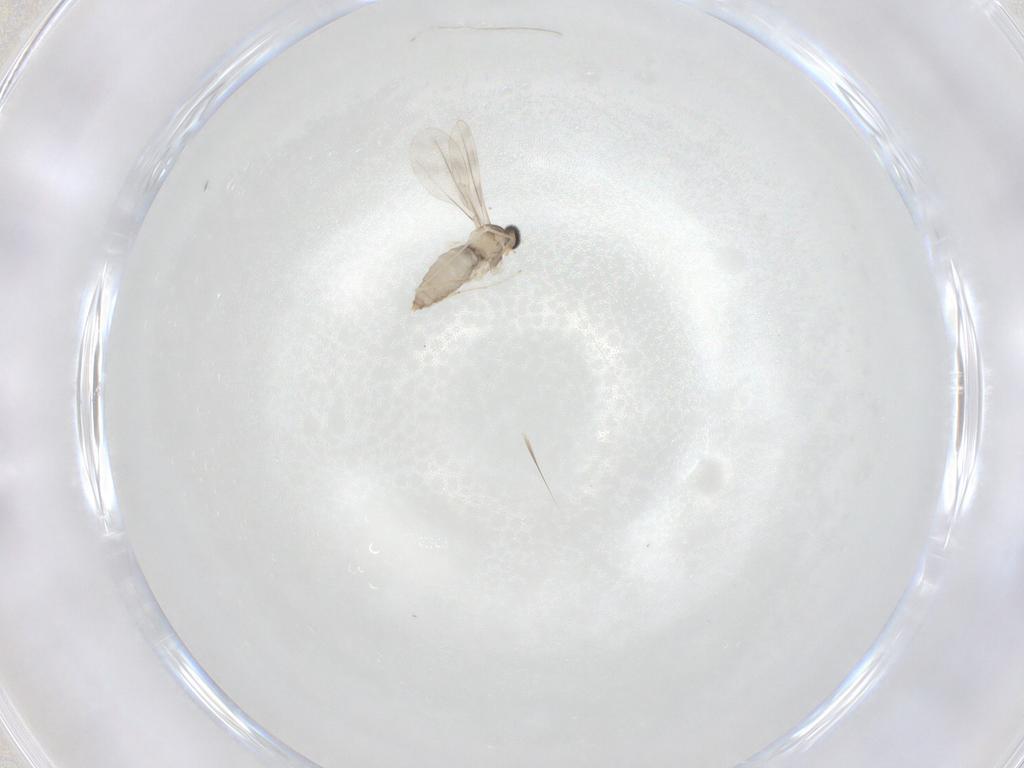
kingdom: Animalia
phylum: Arthropoda
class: Insecta
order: Diptera
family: Cecidomyiidae
